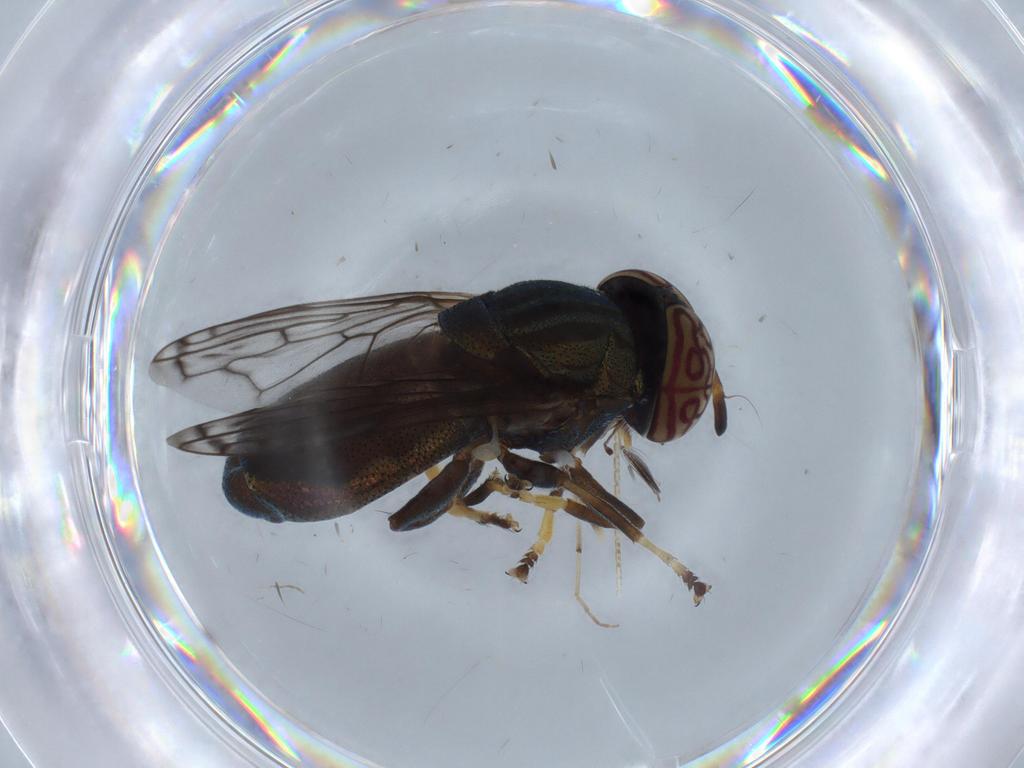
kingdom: Animalia
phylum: Arthropoda
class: Insecta
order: Diptera
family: Syrphidae
